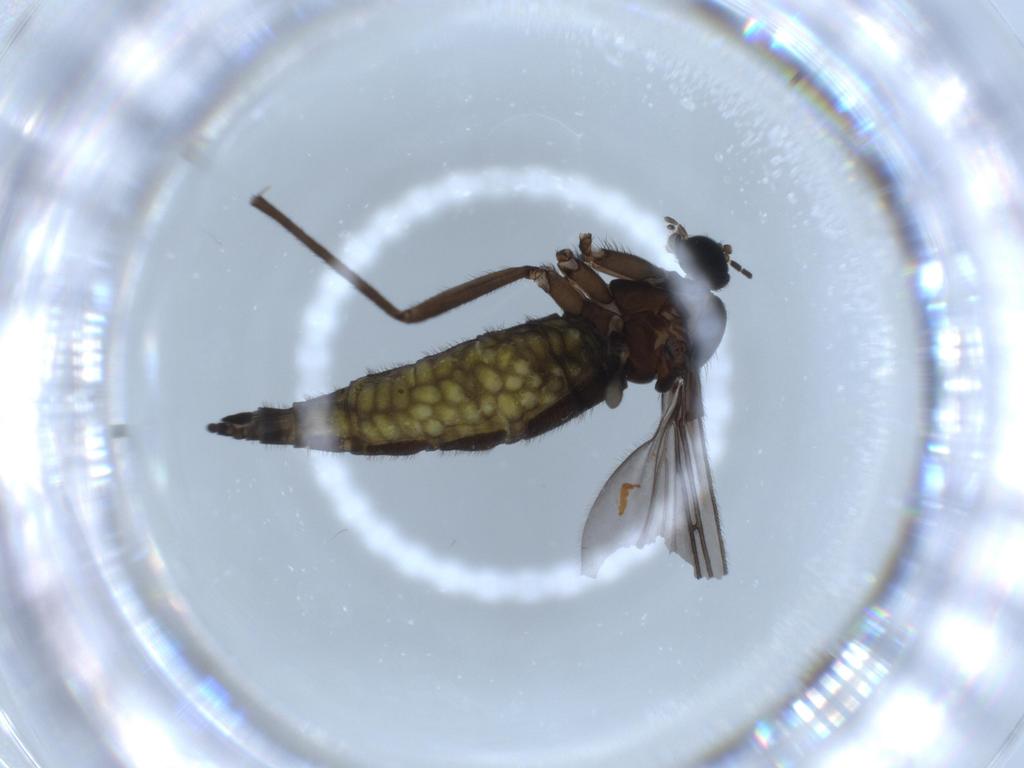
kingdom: Animalia
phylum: Arthropoda
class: Insecta
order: Diptera
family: Sciaridae
